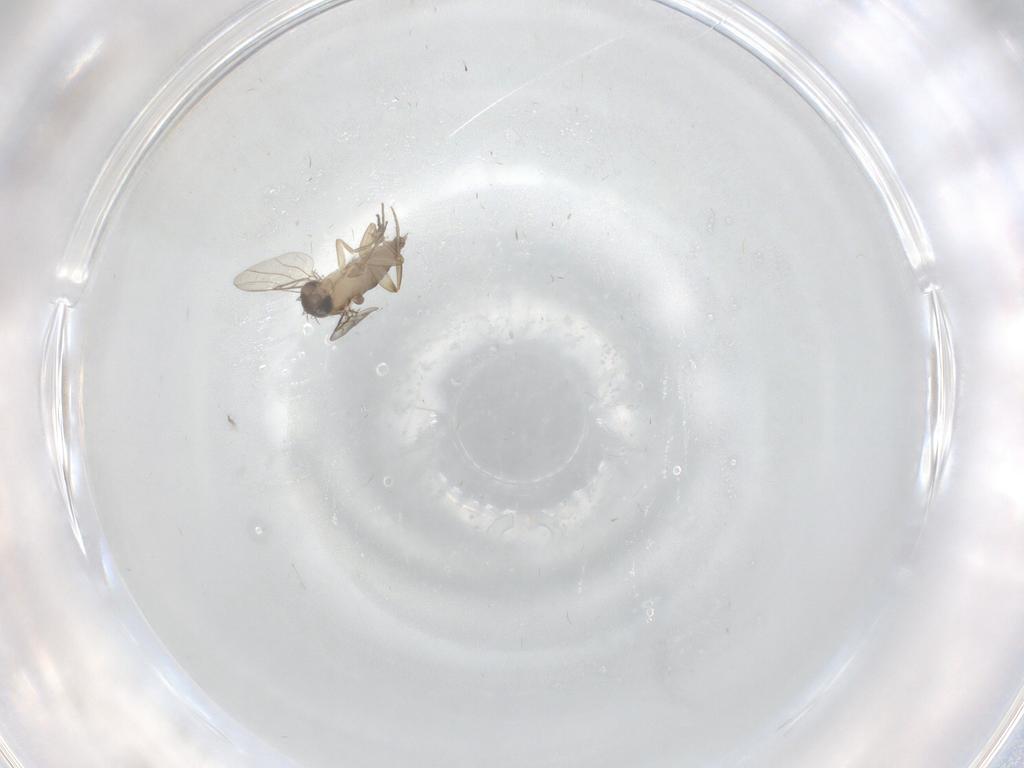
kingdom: Animalia
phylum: Arthropoda
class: Insecta
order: Diptera
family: Phoridae
